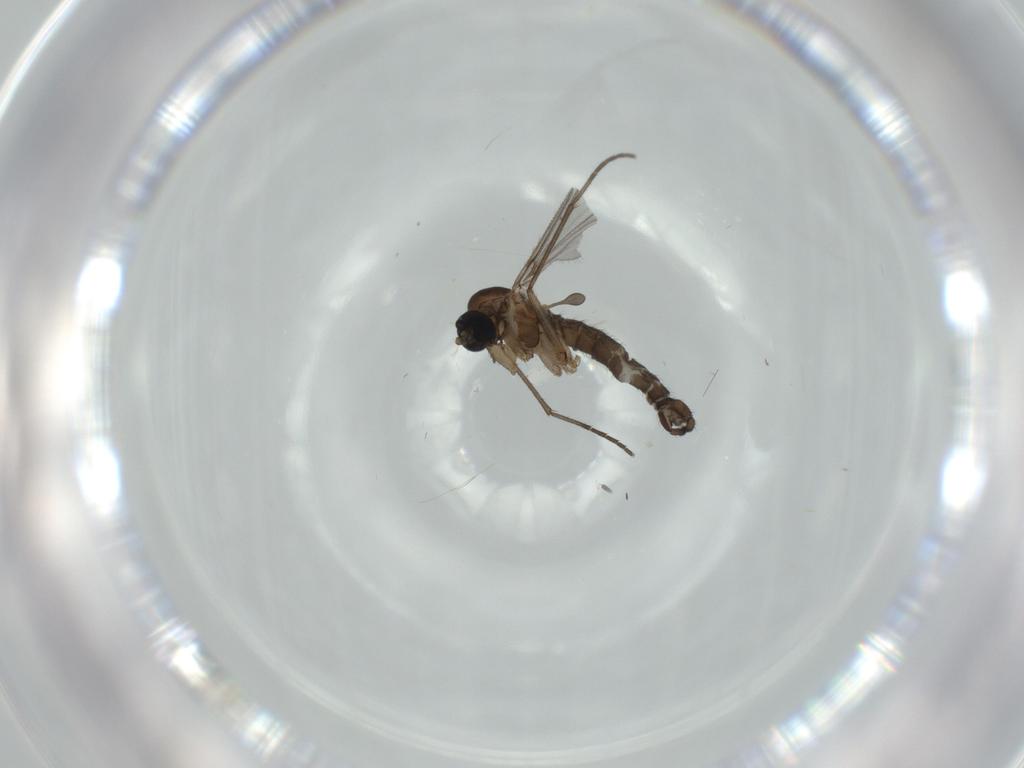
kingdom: Animalia
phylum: Arthropoda
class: Insecta
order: Diptera
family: Sciaridae
